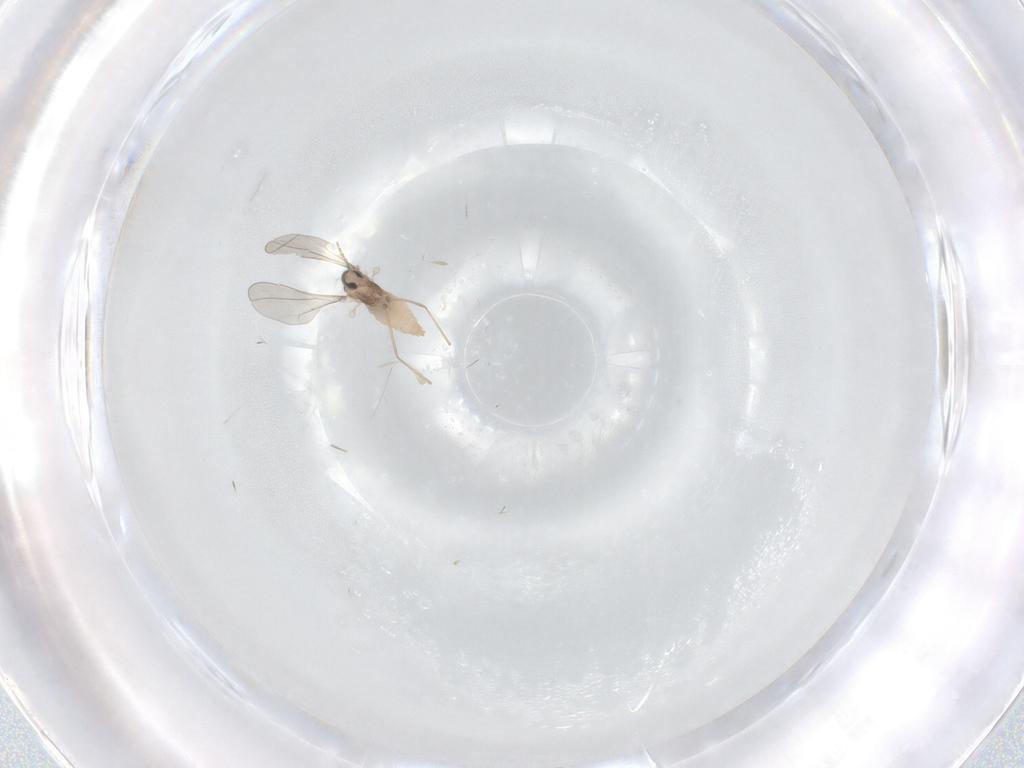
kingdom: Animalia
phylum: Arthropoda
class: Insecta
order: Diptera
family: Cecidomyiidae
